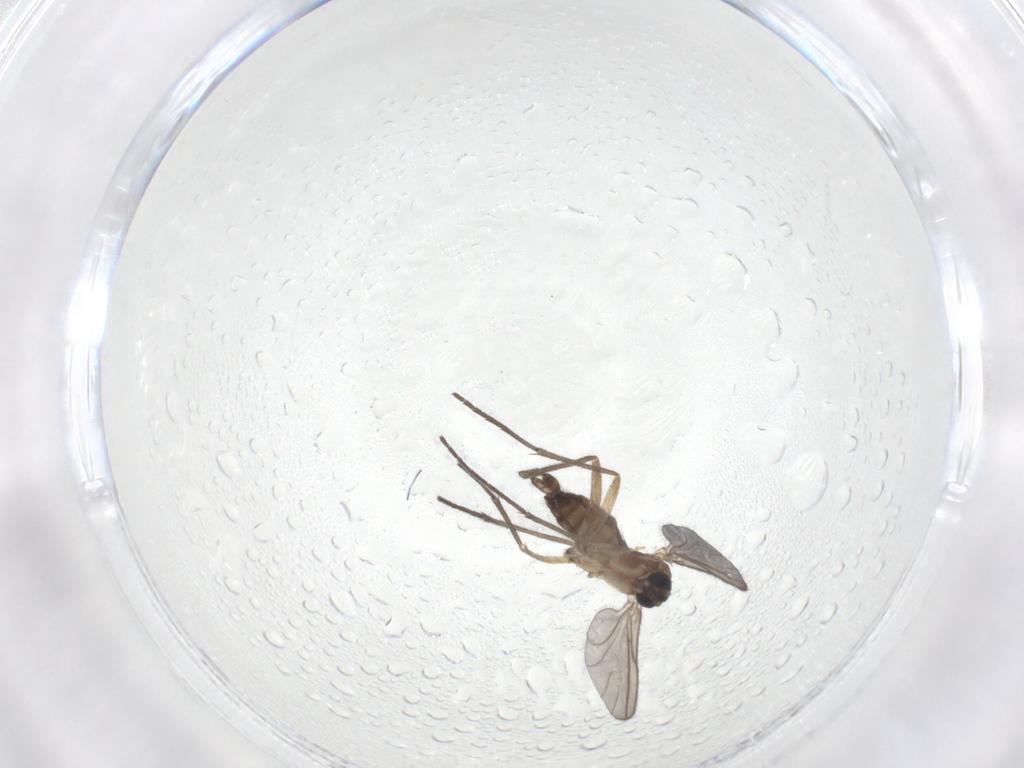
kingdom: Animalia
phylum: Arthropoda
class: Insecta
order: Diptera
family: Sciaridae
